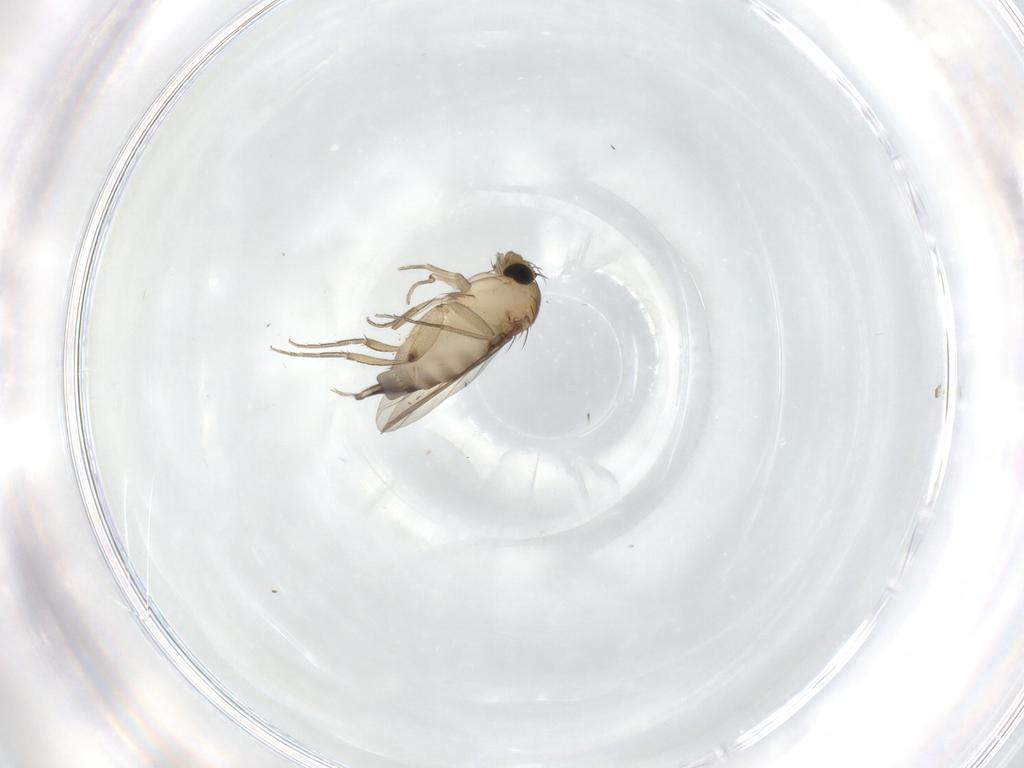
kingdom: Animalia
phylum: Arthropoda
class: Insecta
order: Diptera
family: Phoridae
